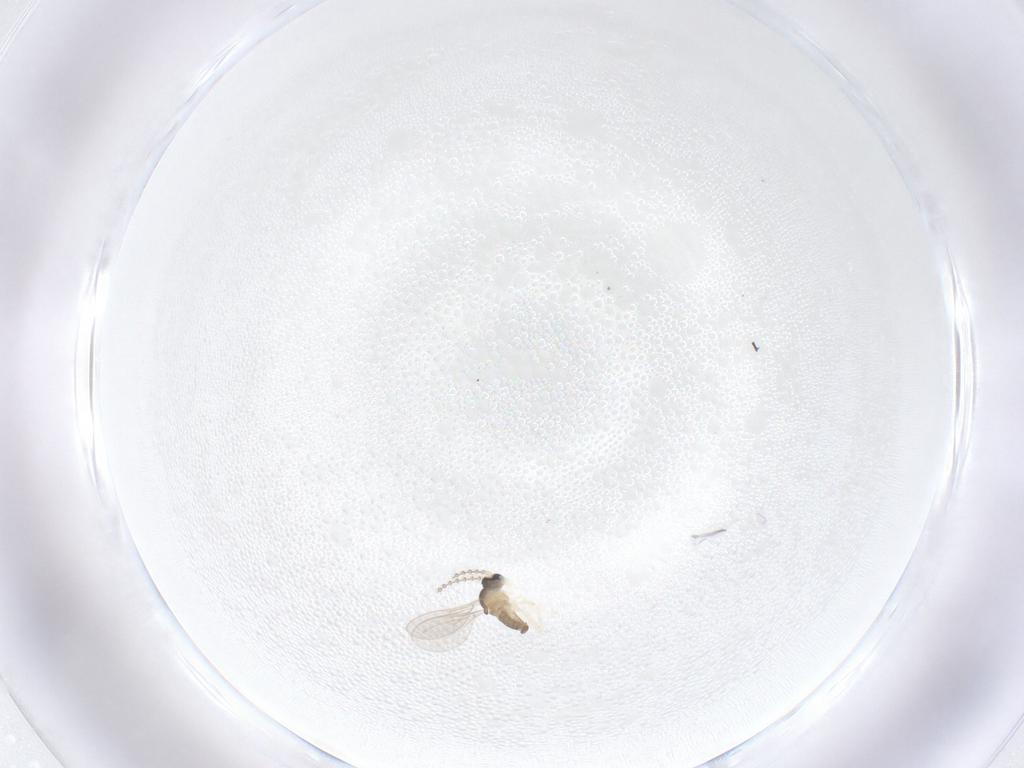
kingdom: Animalia
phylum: Arthropoda
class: Insecta
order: Diptera
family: Cecidomyiidae
